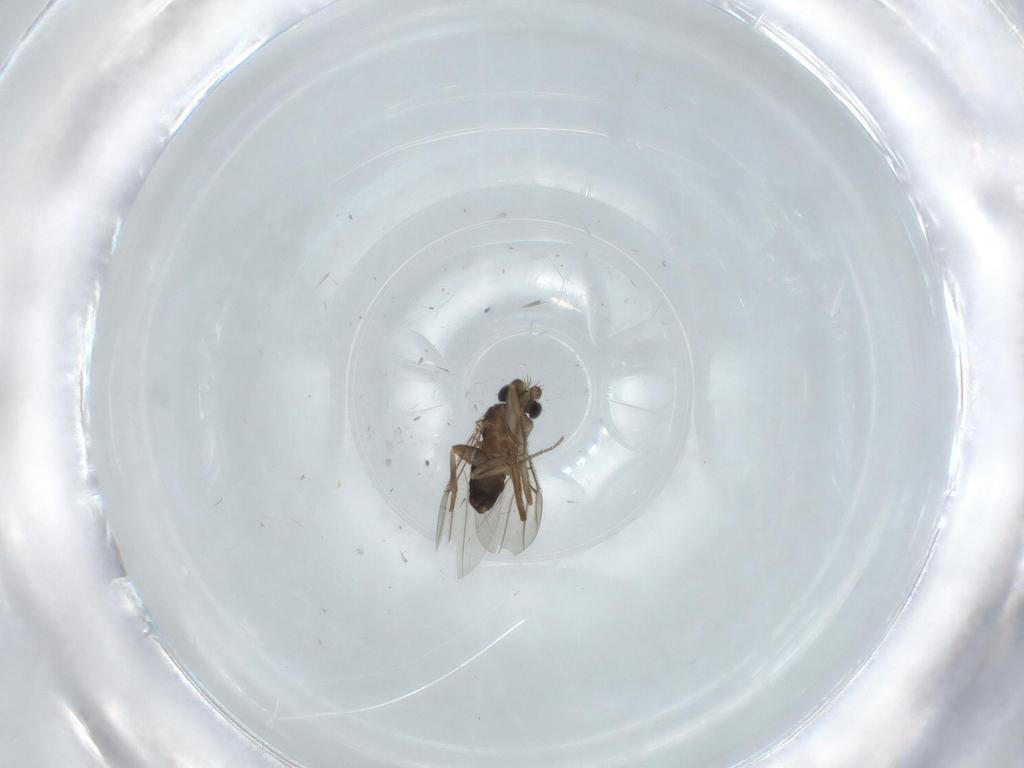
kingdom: Animalia
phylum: Arthropoda
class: Insecta
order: Diptera
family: Phoridae
